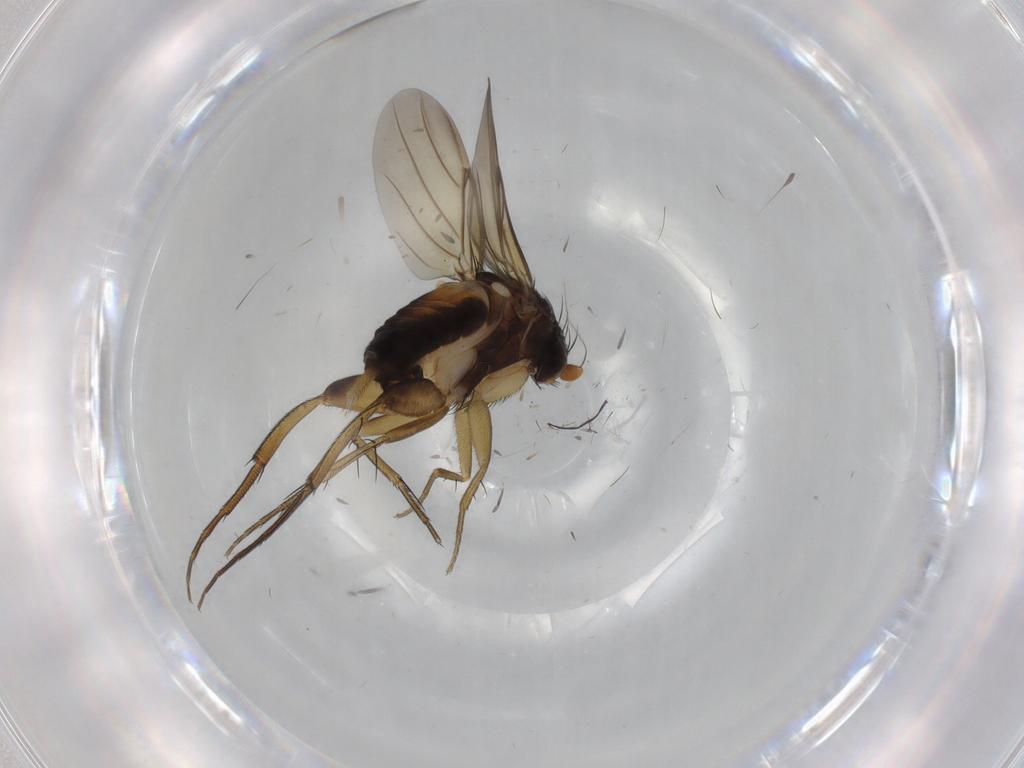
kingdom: Animalia
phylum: Arthropoda
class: Insecta
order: Diptera
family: Phoridae
